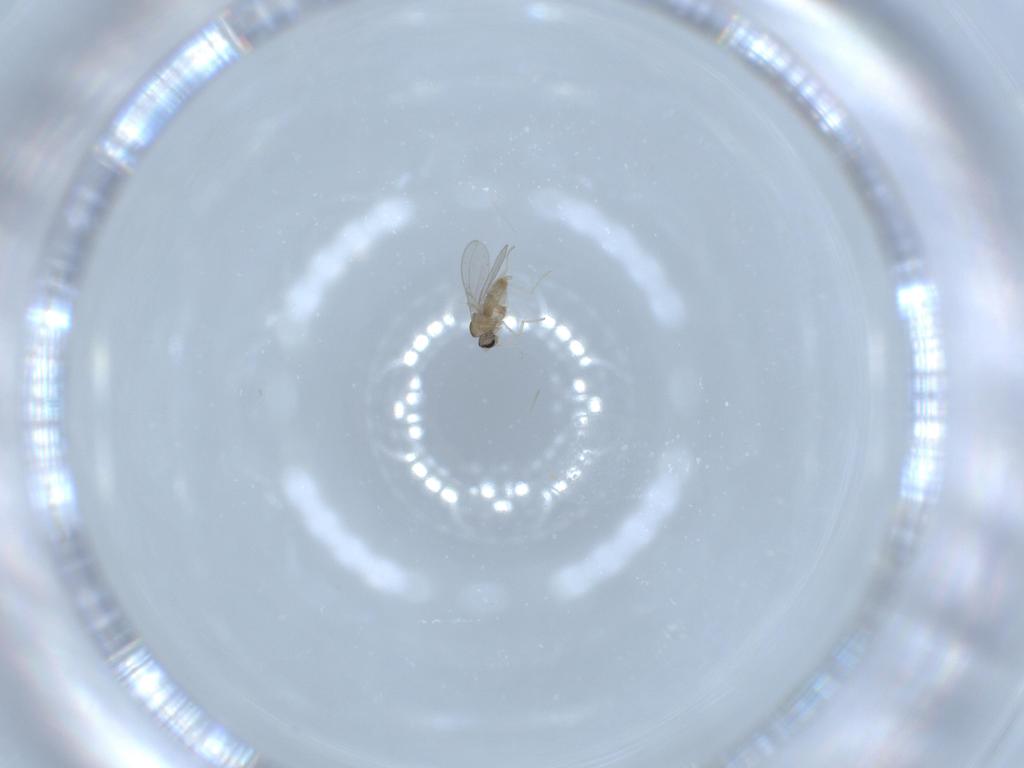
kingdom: Animalia
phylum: Arthropoda
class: Insecta
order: Diptera
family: Cecidomyiidae
